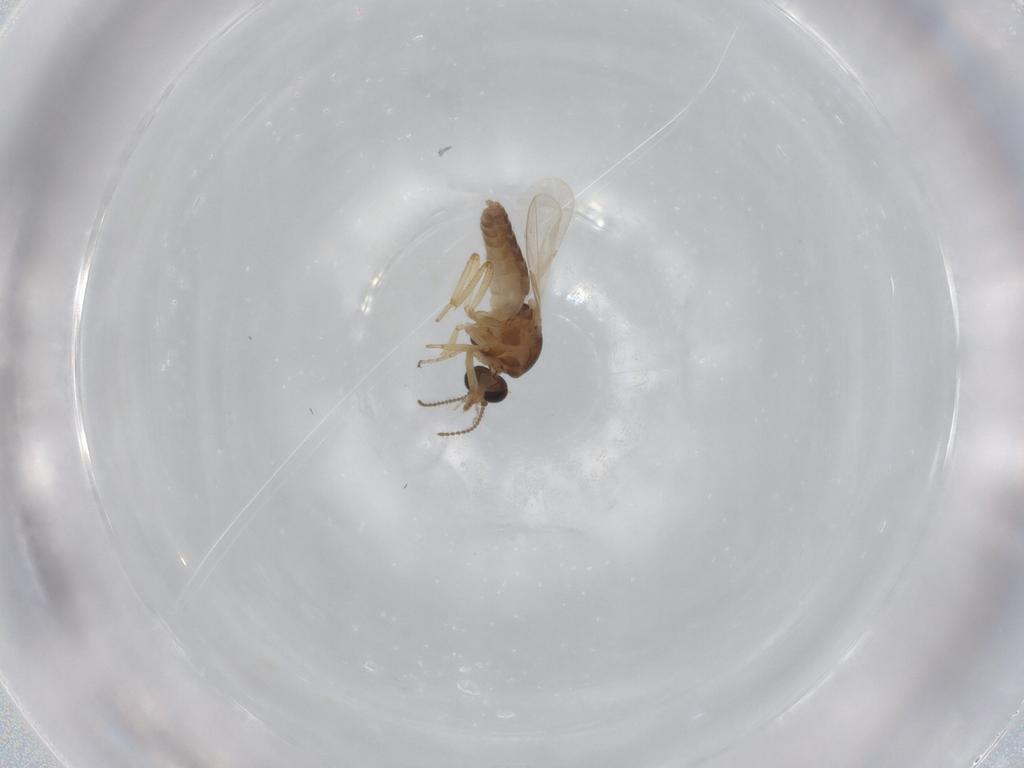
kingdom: Animalia
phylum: Arthropoda
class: Insecta
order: Diptera
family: Ceratopogonidae
